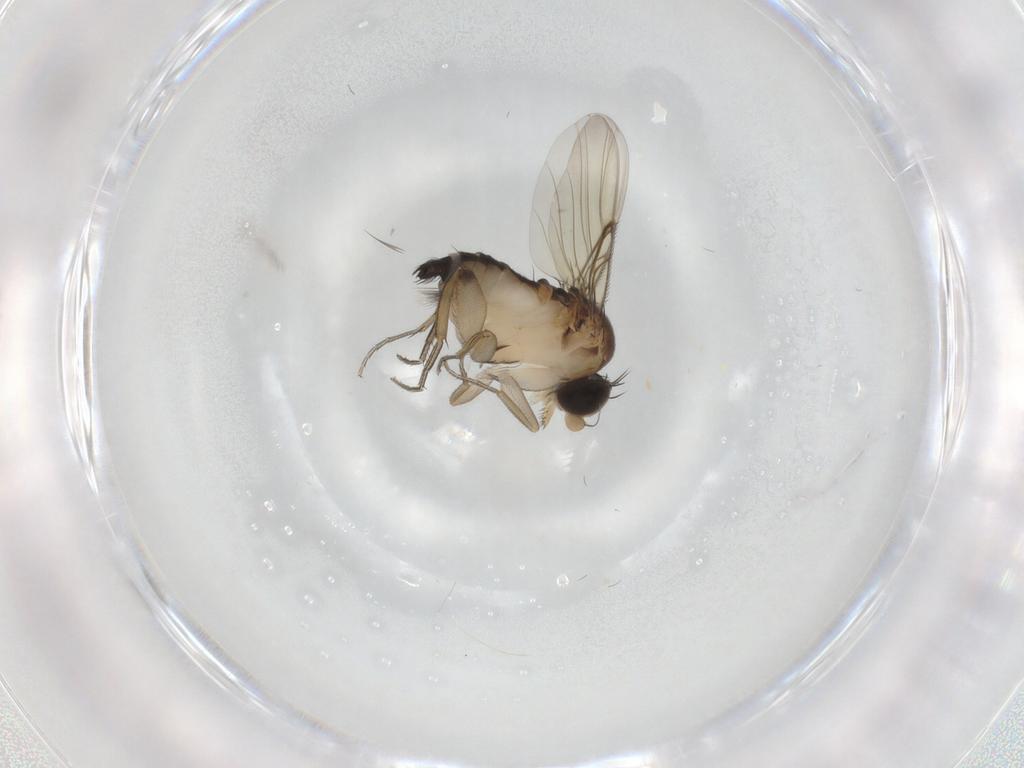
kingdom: Animalia
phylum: Arthropoda
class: Insecta
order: Diptera
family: Phoridae
